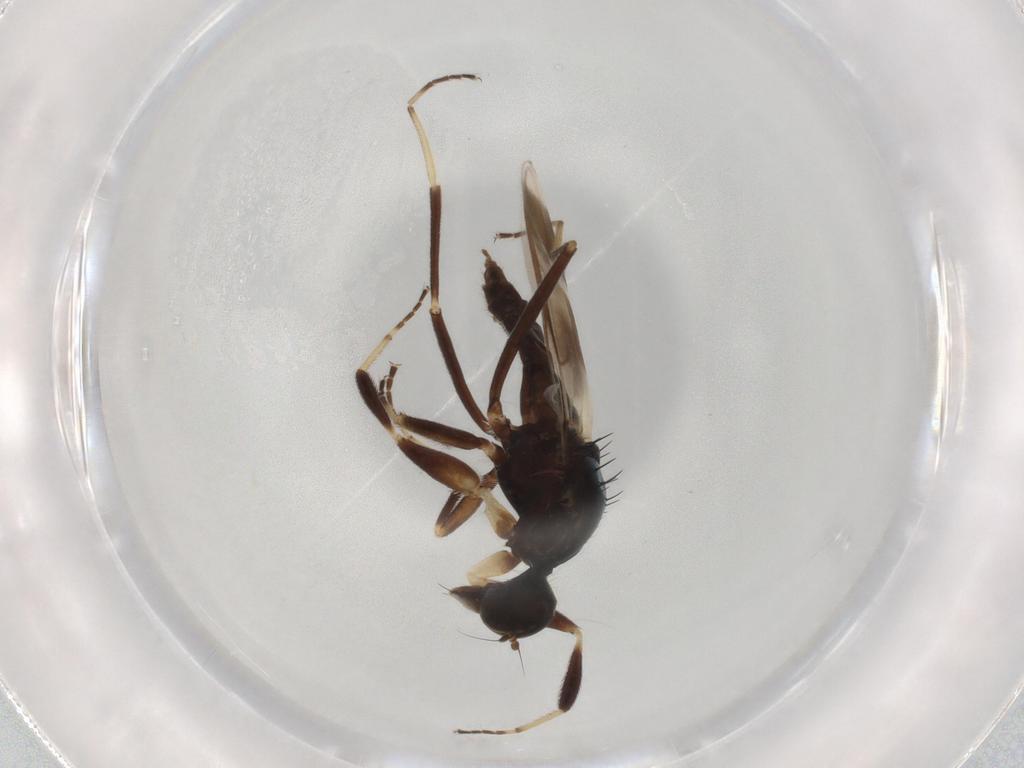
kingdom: Animalia
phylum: Arthropoda
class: Insecta
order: Diptera
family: Hybotidae
